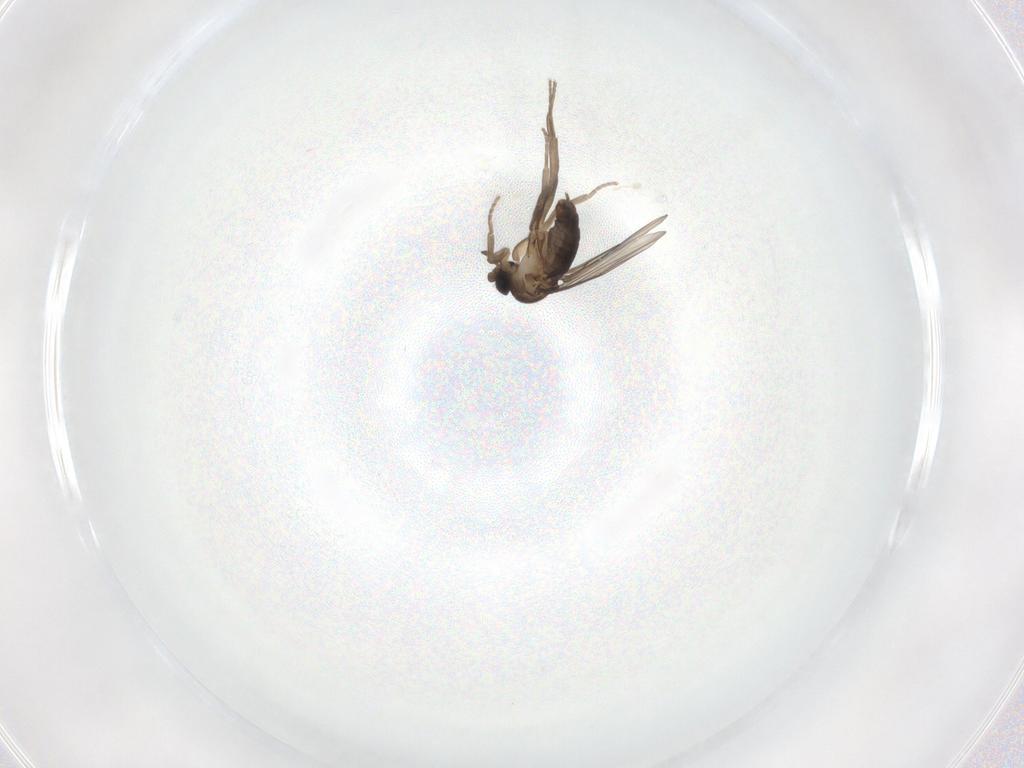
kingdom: Animalia
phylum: Arthropoda
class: Insecta
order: Diptera
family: Cecidomyiidae
